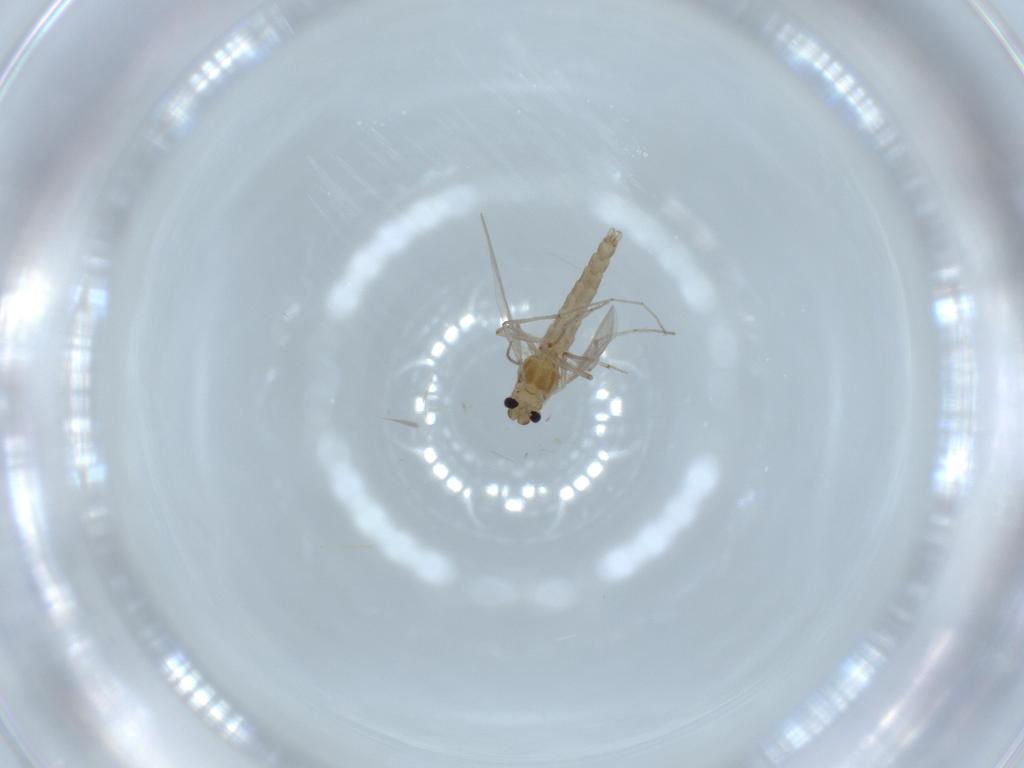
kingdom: Animalia
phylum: Arthropoda
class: Insecta
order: Diptera
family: Chironomidae
